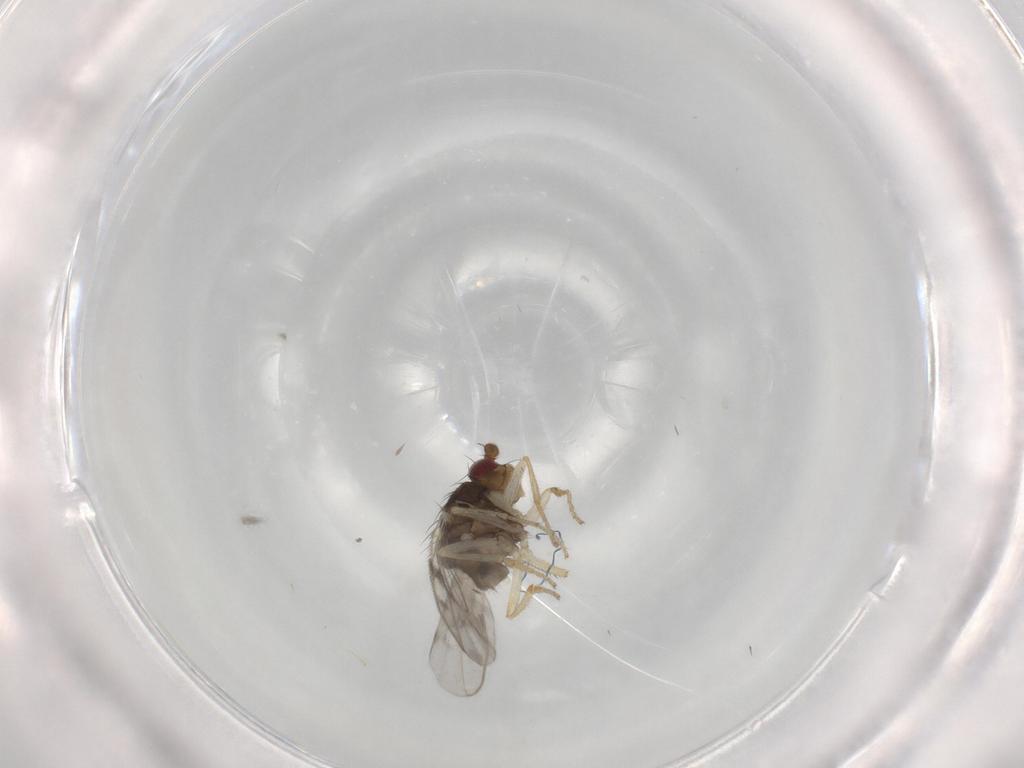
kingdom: Animalia
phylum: Arthropoda
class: Insecta
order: Diptera
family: Sphaeroceridae
